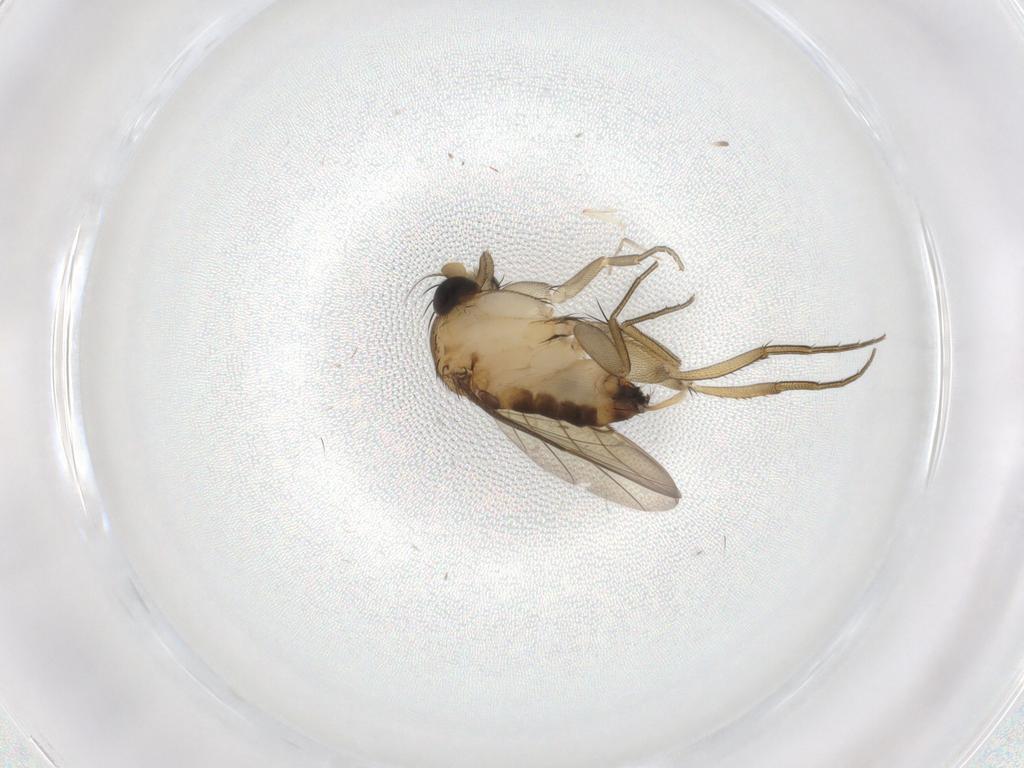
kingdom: Animalia
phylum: Arthropoda
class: Insecta
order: Diptera
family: Phoridae
